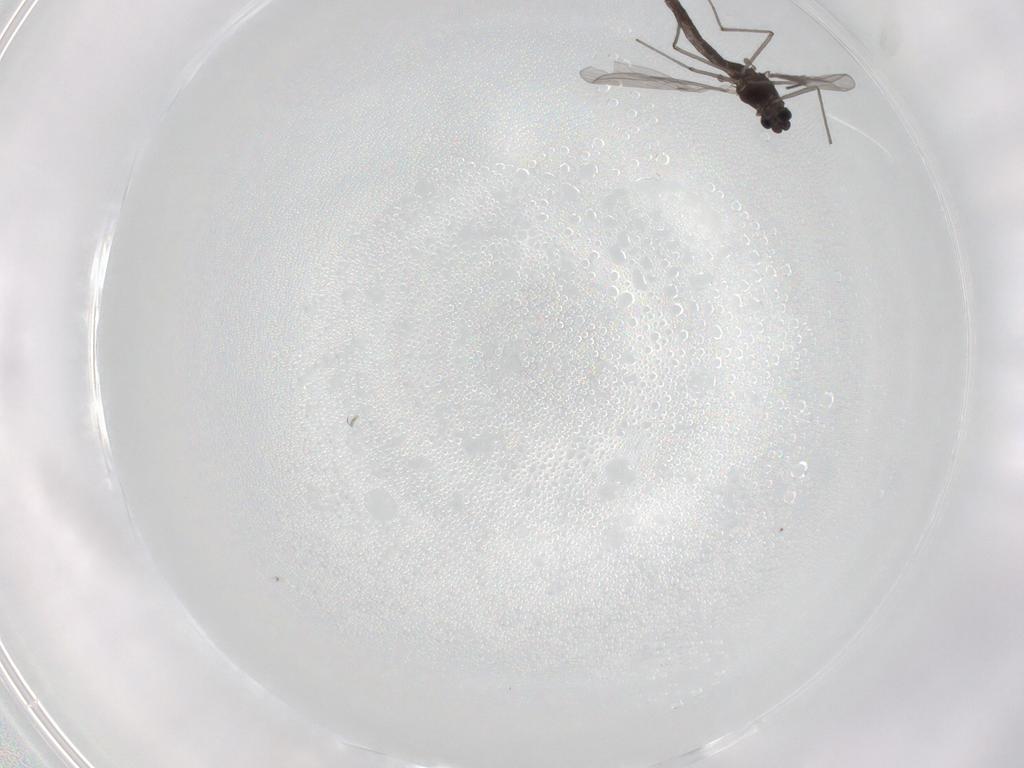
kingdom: Animalia
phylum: Arthropoda
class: Insecta
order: Diptera
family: Chironomidae
